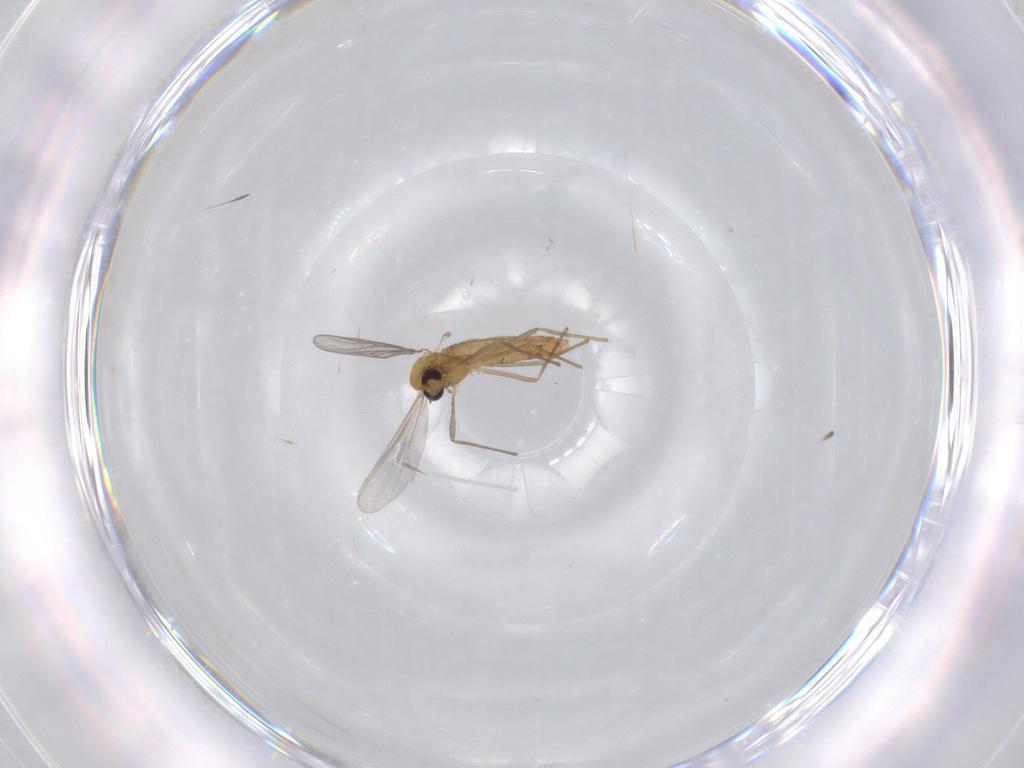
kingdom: Animalia
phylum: Arthropoda
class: Insecta
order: Diptera
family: Chironomidae
